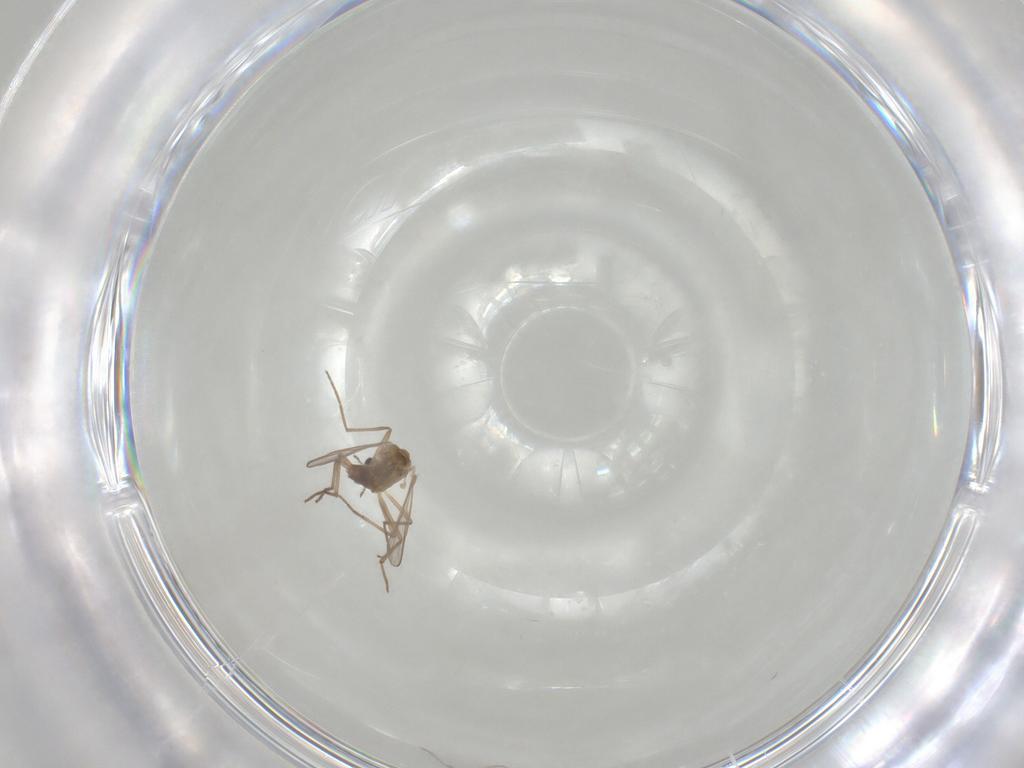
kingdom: Animalia
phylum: Arthropoda
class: Insecta
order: Diptera
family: Chironomidae
